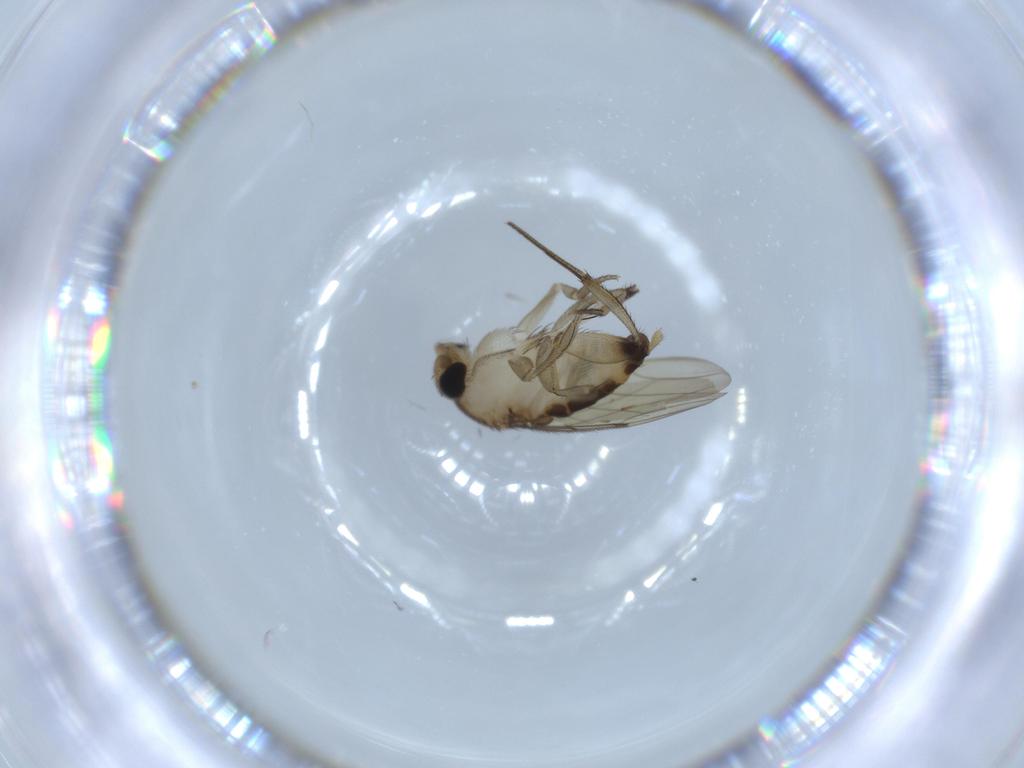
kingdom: Animalia
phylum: Arthropoda
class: Insecta
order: Diptera
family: Phoridae
